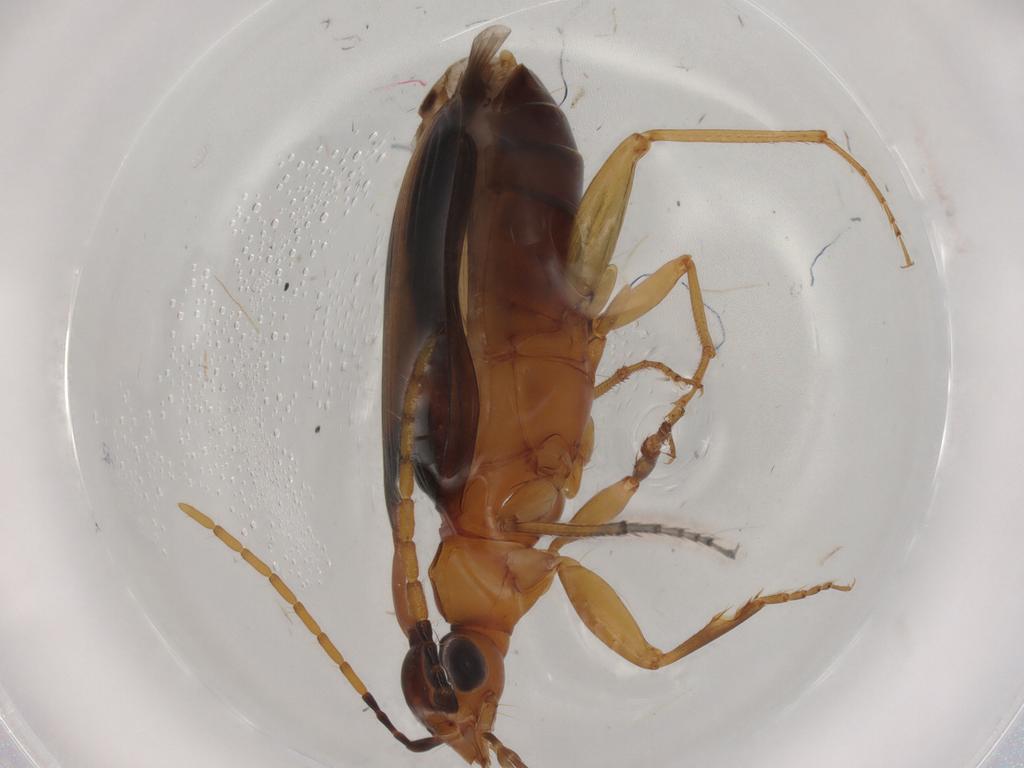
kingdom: Animalia
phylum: Arthropoda
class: Insecta
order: Coleoptera
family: Carabidae
